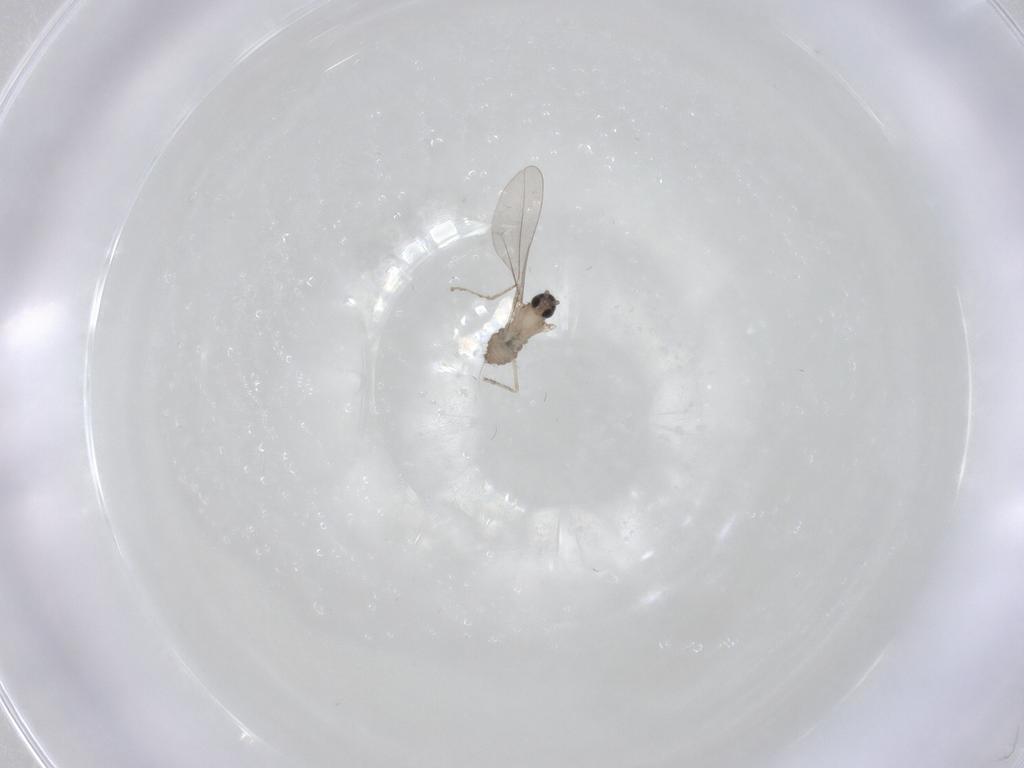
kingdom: Animalia
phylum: Arthropoda
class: Insecta
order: Diptera
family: Cecidomyiidae
